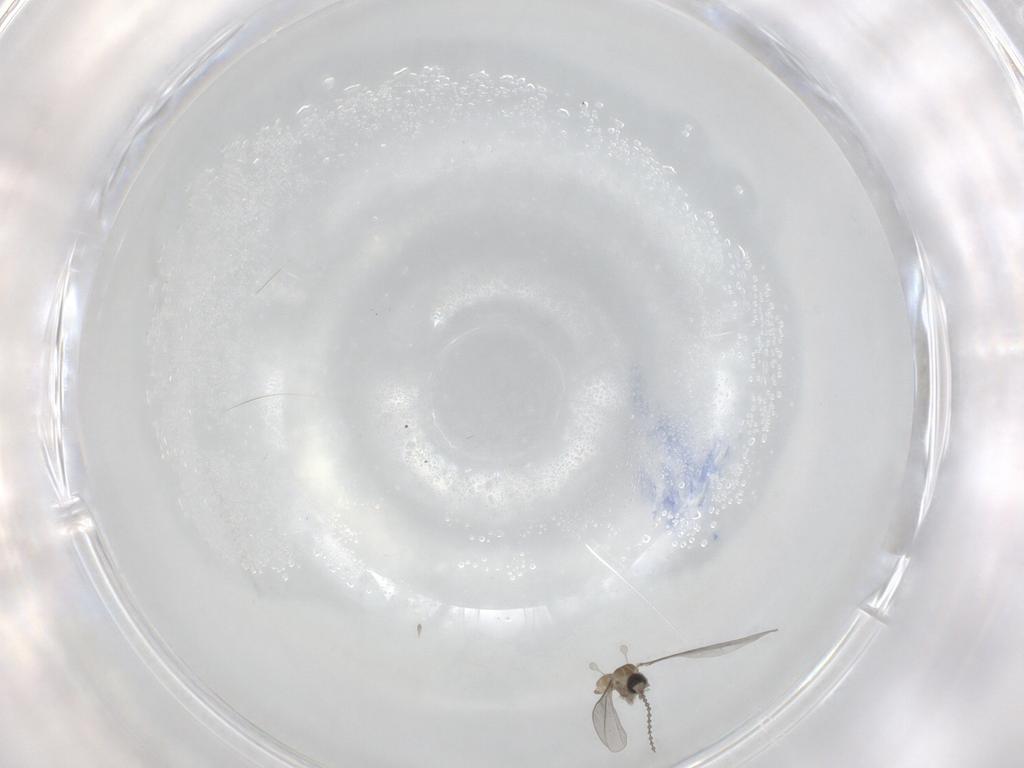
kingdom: Animalia
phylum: Arthropoda
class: Insecta
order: Diptera
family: Cecidomyiidae
